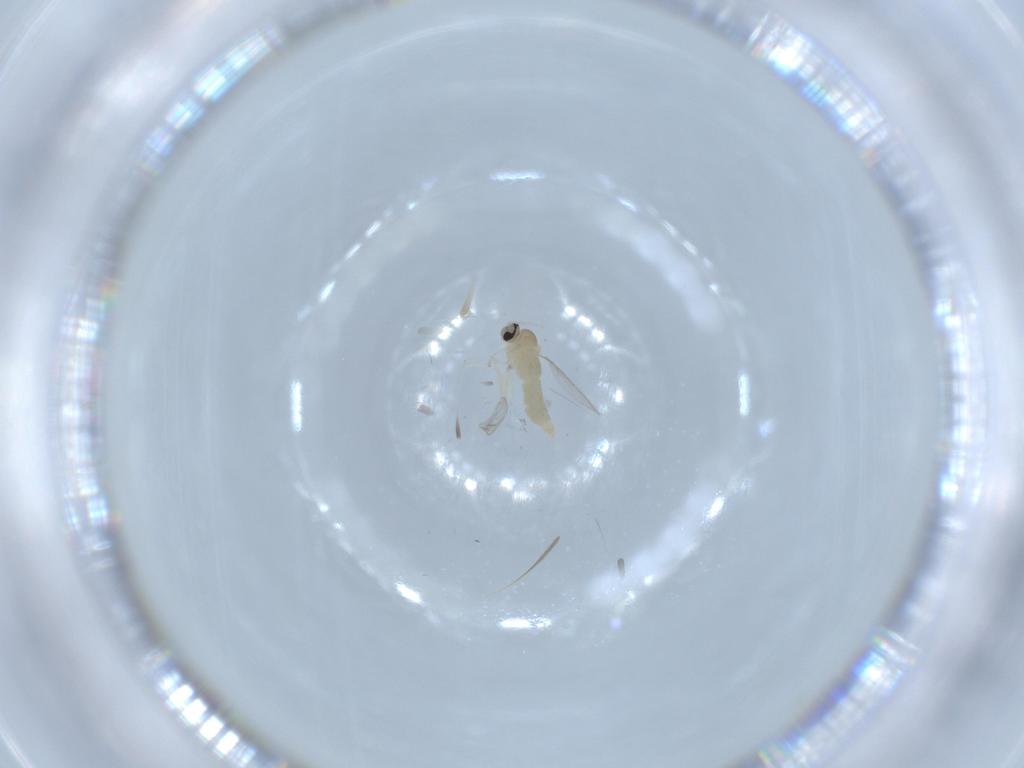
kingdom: Animalia
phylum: Arthropoda
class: Insecta
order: Diptera
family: Cecidomyiidae
